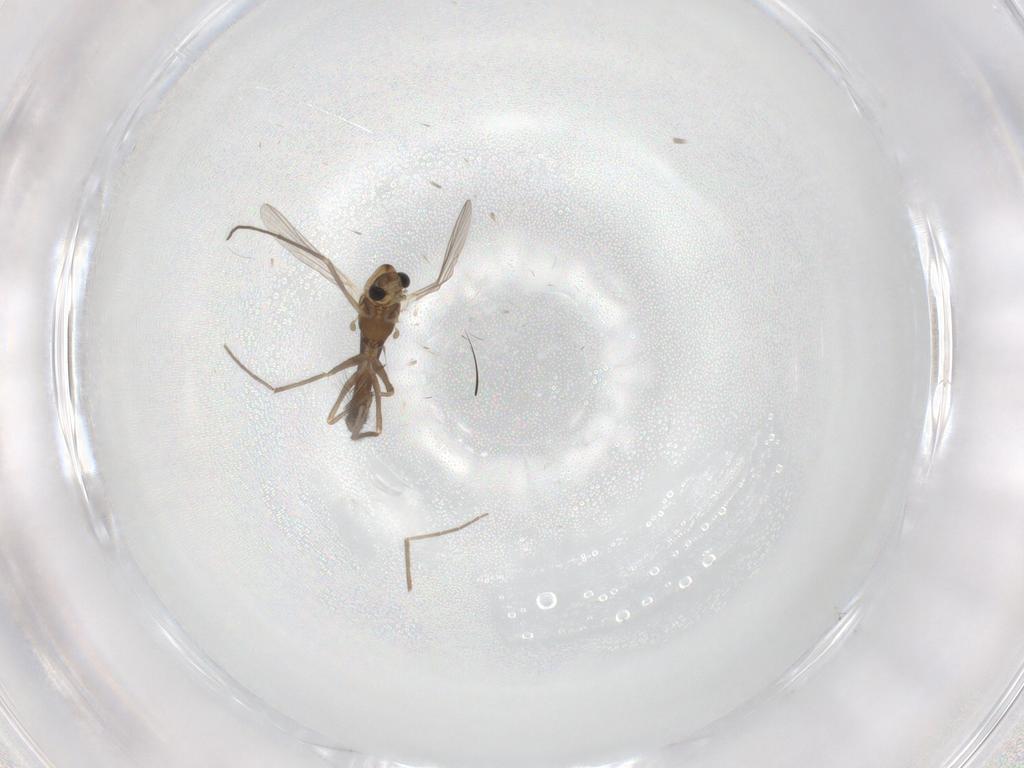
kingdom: Animalia
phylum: Arthropoda
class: Insecta
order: Diptera
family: Chironomidae
